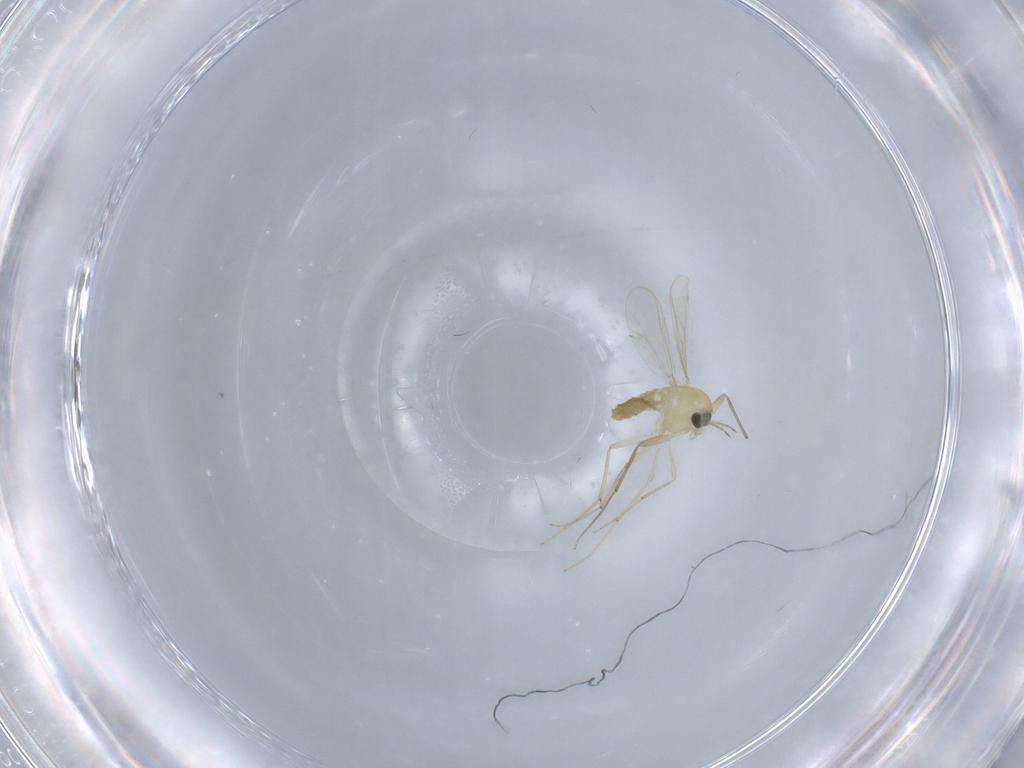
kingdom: Animalia
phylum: Arthropoda
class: Insecta
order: Diptera
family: Chironomidae
